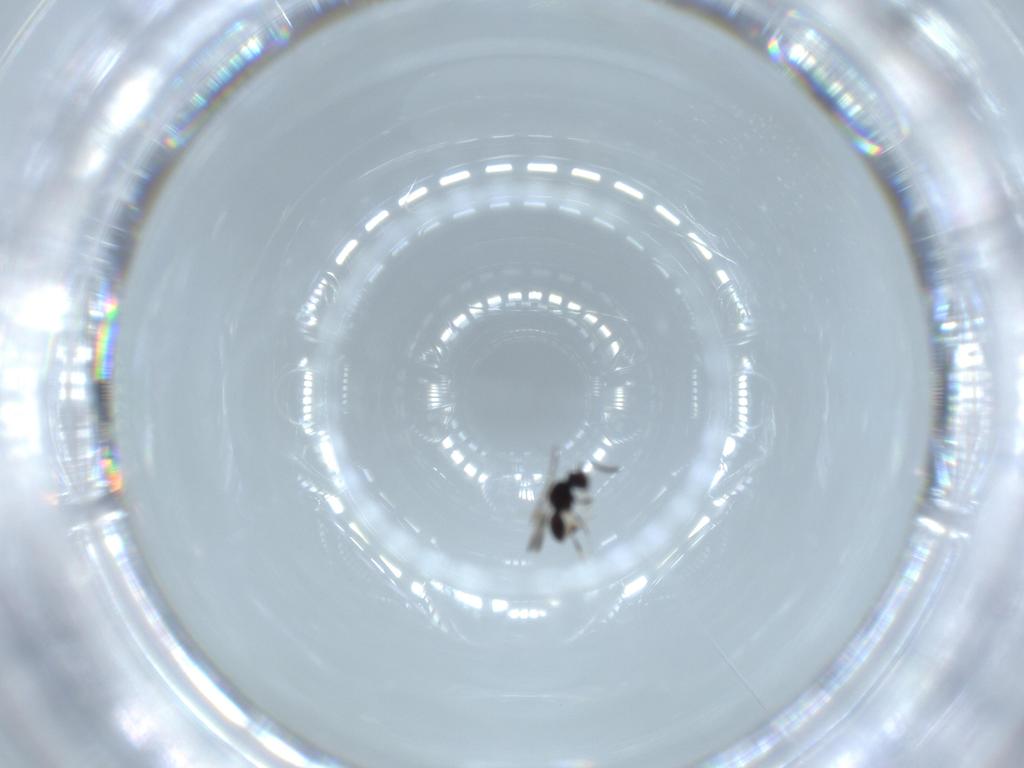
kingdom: Animalia
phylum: Arthropoda
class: Insecta
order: Hymenoptera
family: Ceraphronidae
